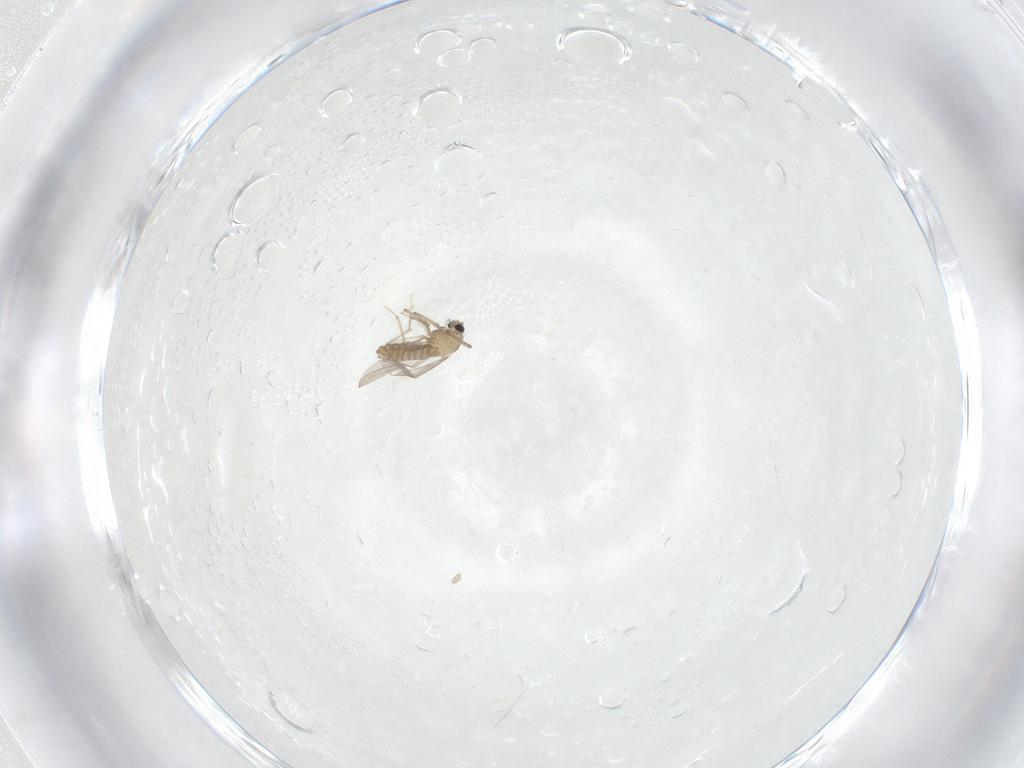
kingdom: Animalia
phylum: Arthropoda
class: Insecta
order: Diptera
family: Chironomidae
